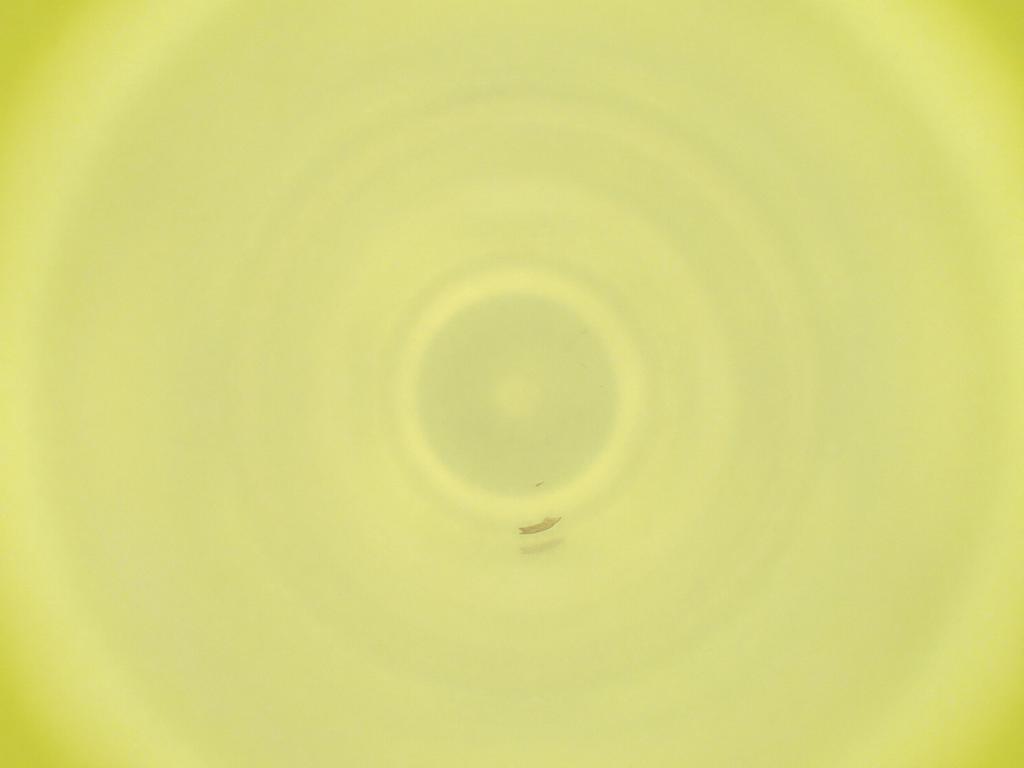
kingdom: Animalia
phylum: Arthropoda
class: Insecta
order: Diptera
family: Cecidomyiidae
